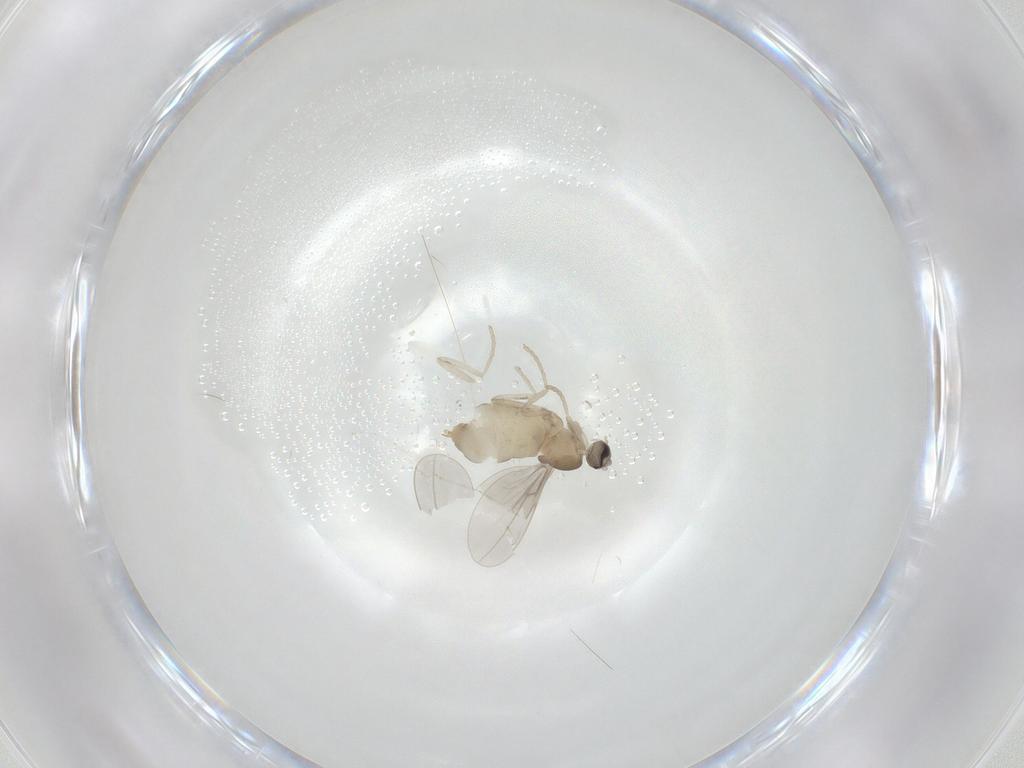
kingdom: Animalia
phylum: Arthropoda
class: Insecta
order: Diptera
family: Cecidomyiidae
